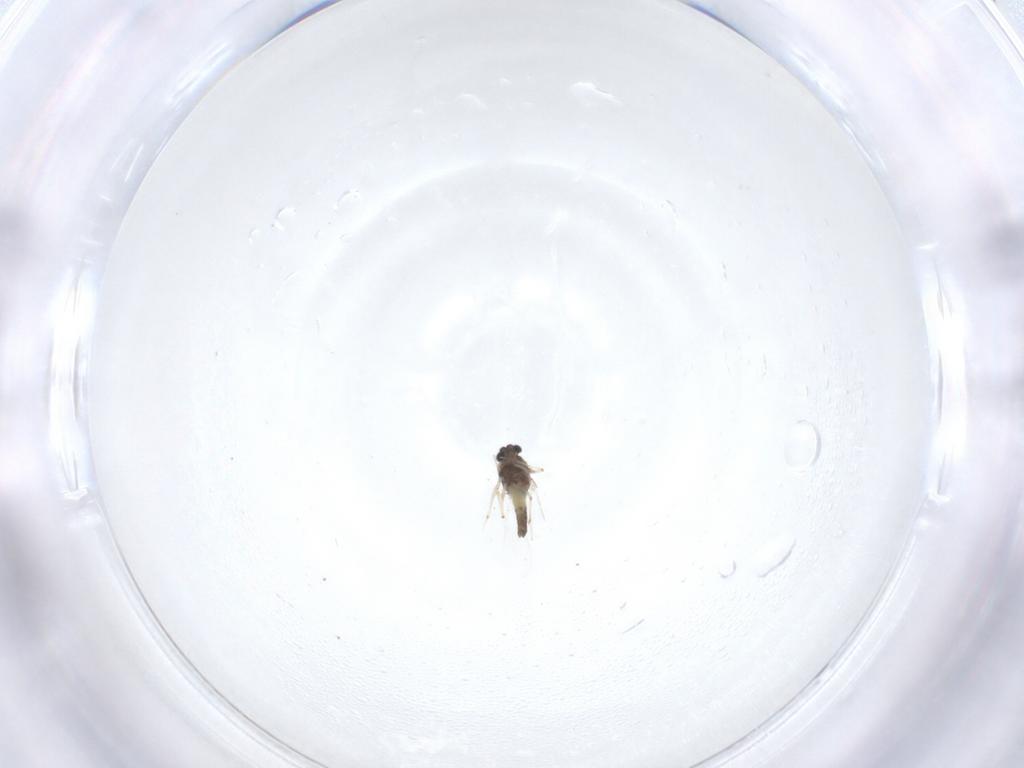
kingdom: Animalia
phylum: Arthropoda
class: Insecta
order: Diptera
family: Chironomidae
